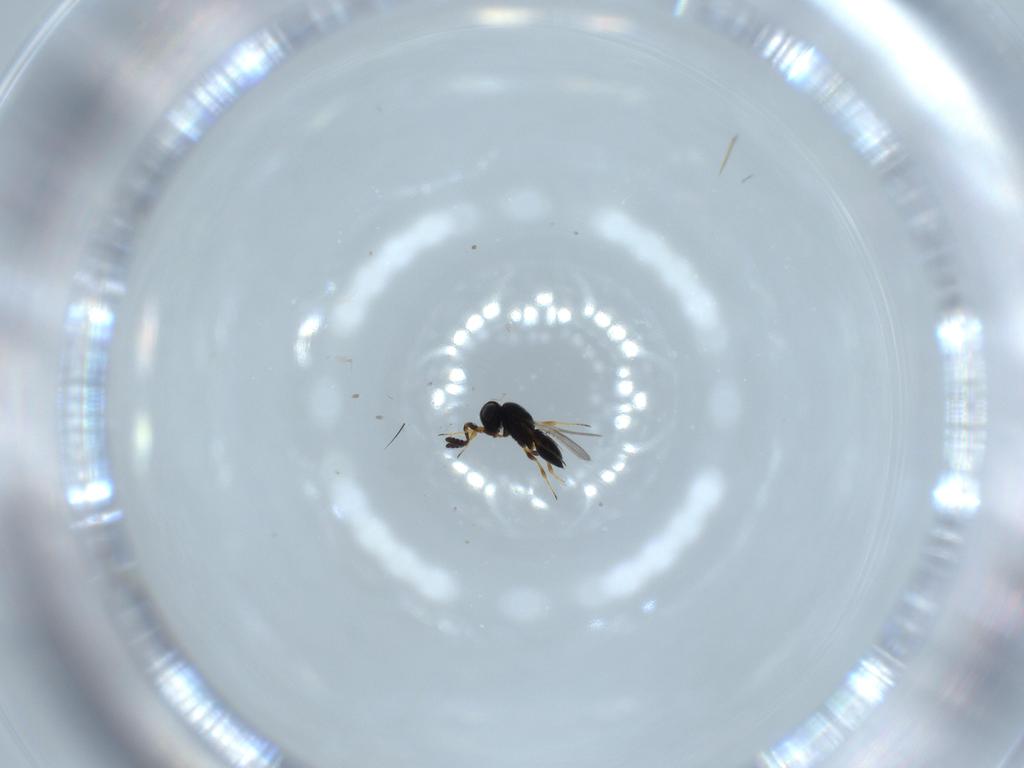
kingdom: Animalia
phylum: Arthropoda
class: Insecta
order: Hymenoptera
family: Scelionidae
